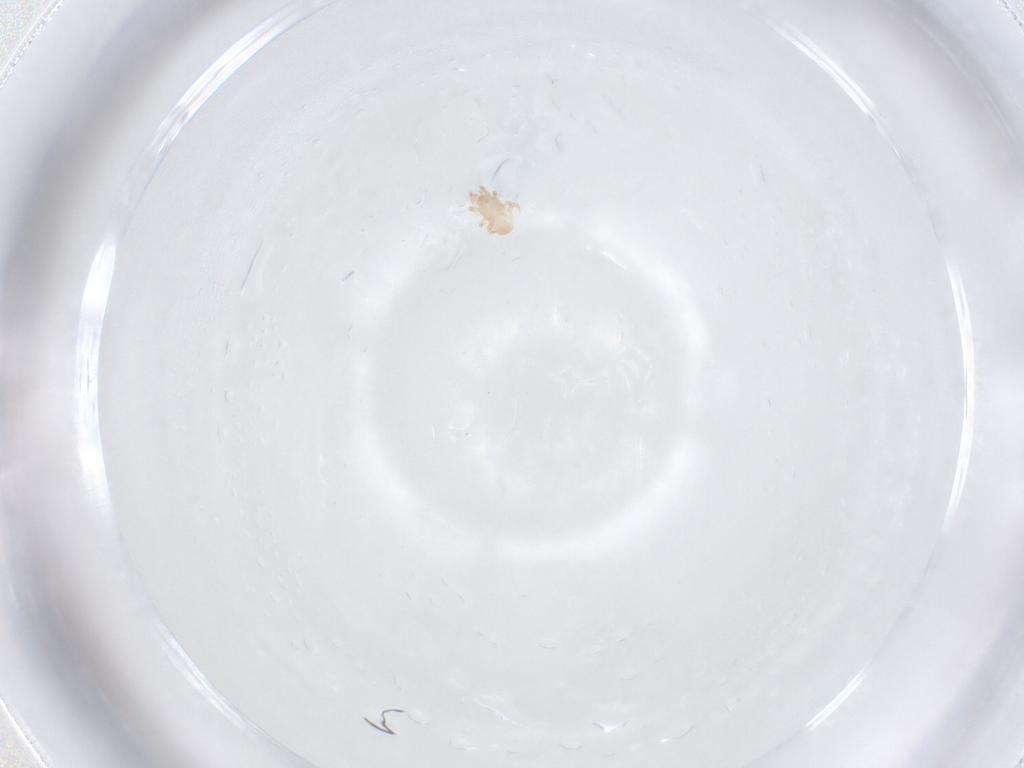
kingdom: Animalia
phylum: Arthropoda
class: Arachnida
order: Mesostigmata
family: Digamasellidae
